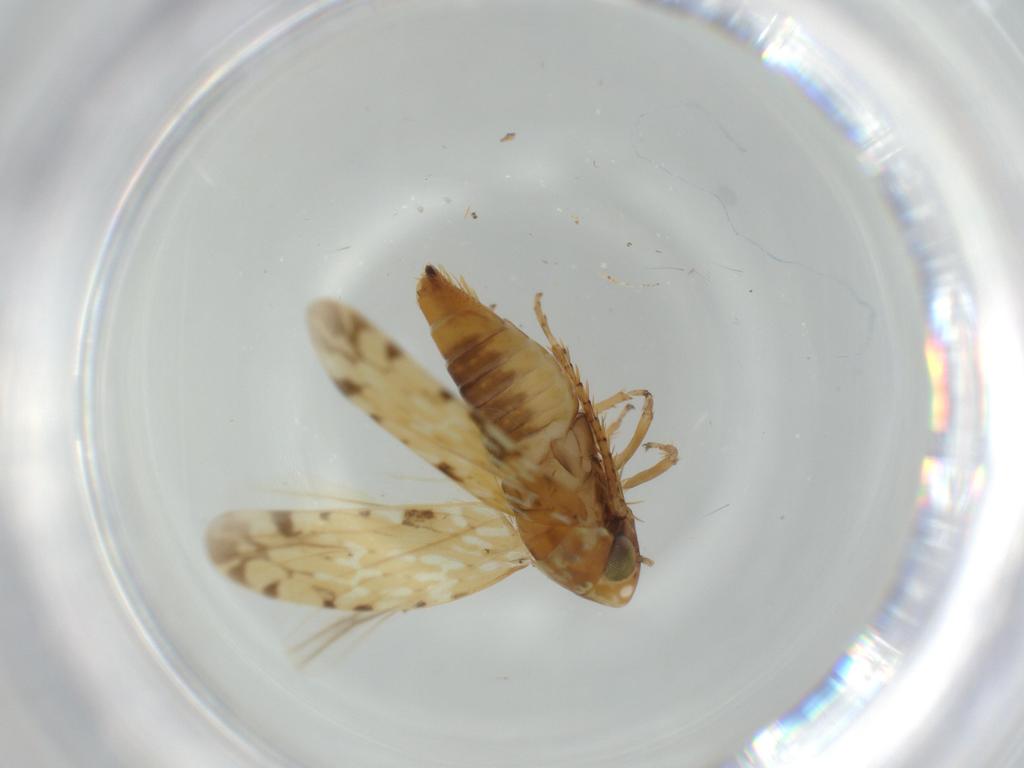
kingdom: Animalia
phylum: Arthropoda
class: Insecta
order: Hemiptera
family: Cicadellidae
